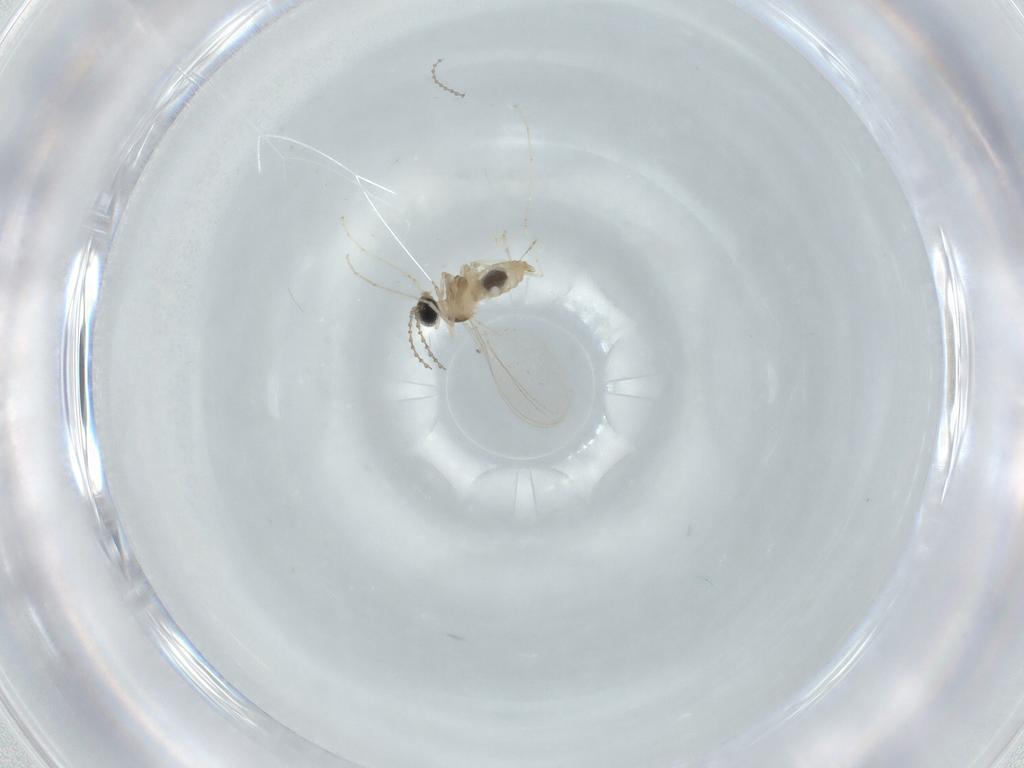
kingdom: Animalia
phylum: Arthropoda
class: Insecta
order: Diptera
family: Cecidomyiidae
